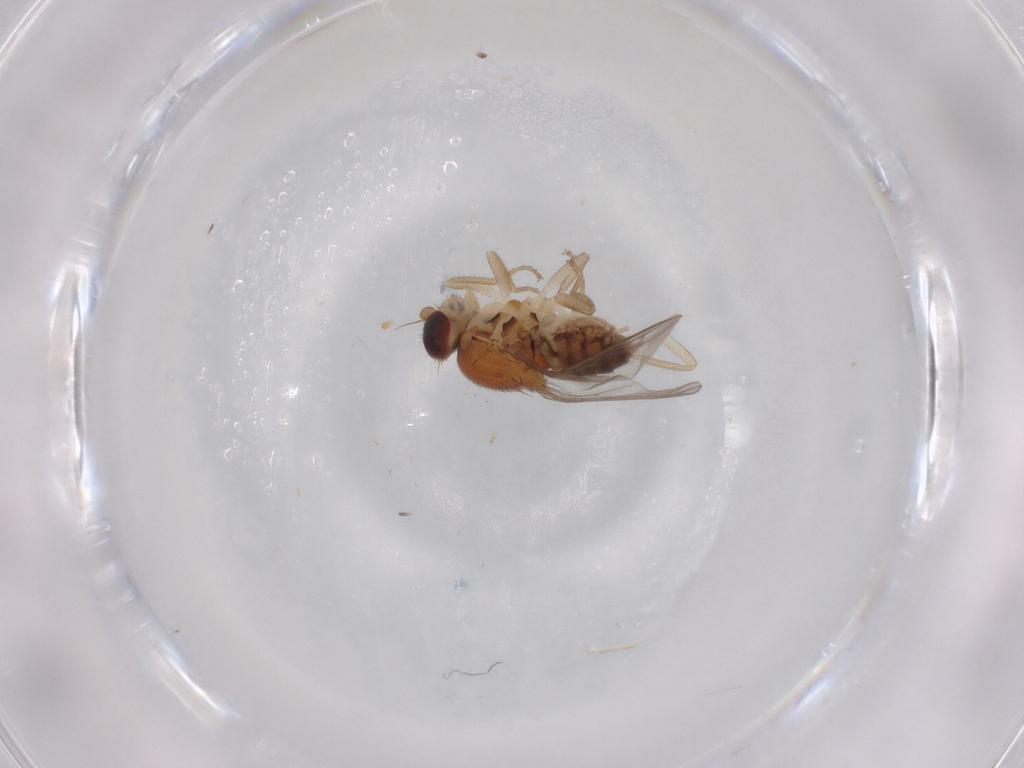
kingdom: Animalia
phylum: Arthropoda
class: Insecta
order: Diptera
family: Chloropidae
